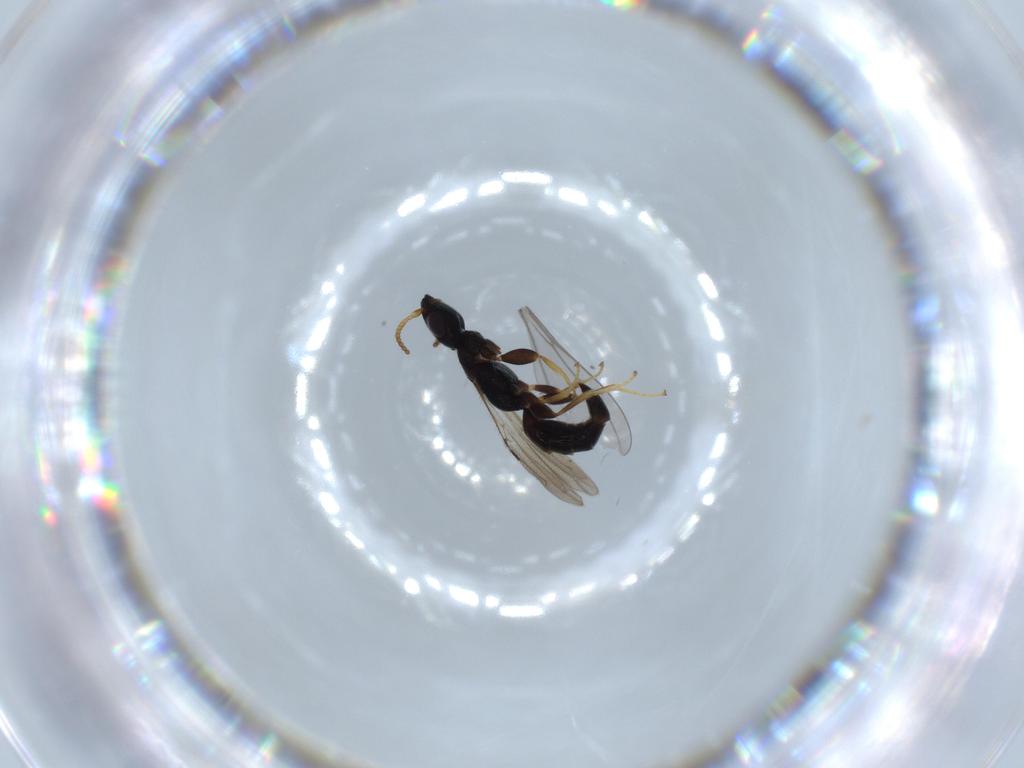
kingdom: Animalia
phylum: Arthropoda
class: Insecta
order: Hymenoptera
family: Bethylidae
